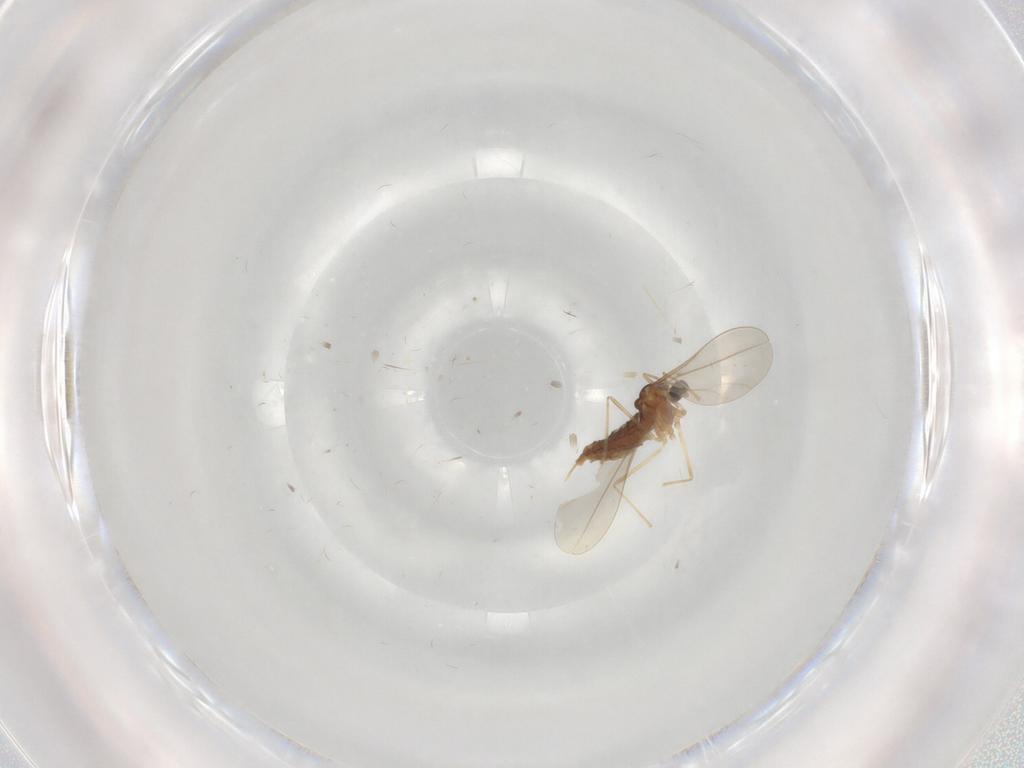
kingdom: Animalia
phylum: Arthropoda
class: Insecta
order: Diptera
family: Cecidomyiidae
